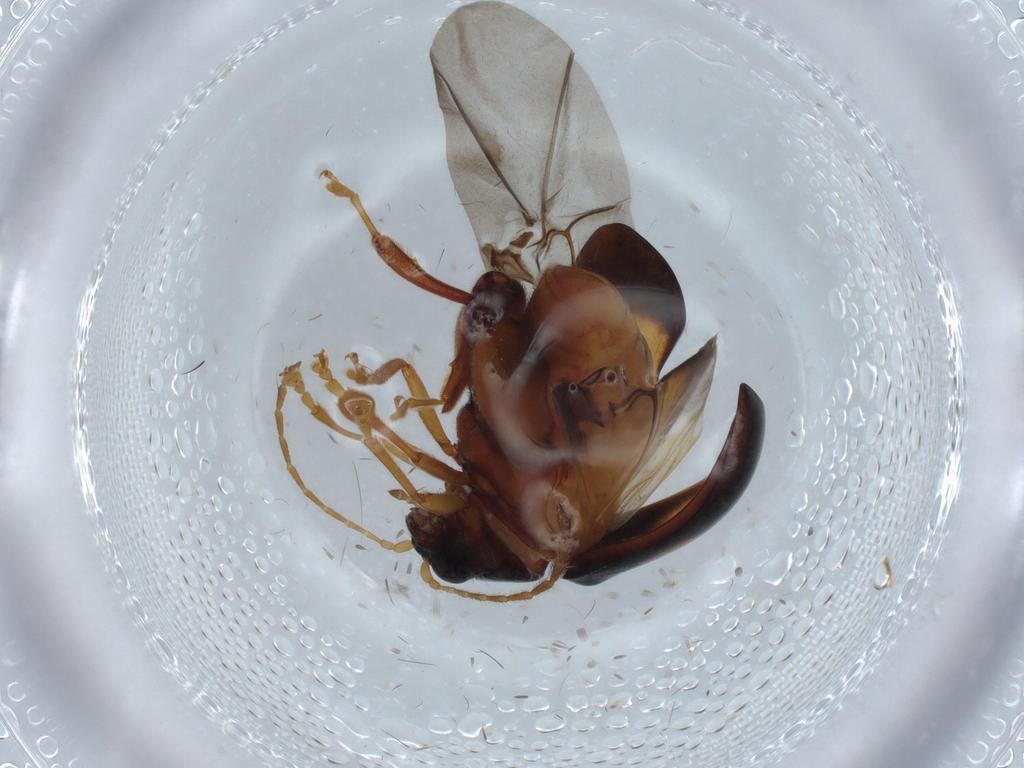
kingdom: Animalia
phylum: Arthropoda
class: Insecta
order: Coleoptera
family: Chrysomelidae
